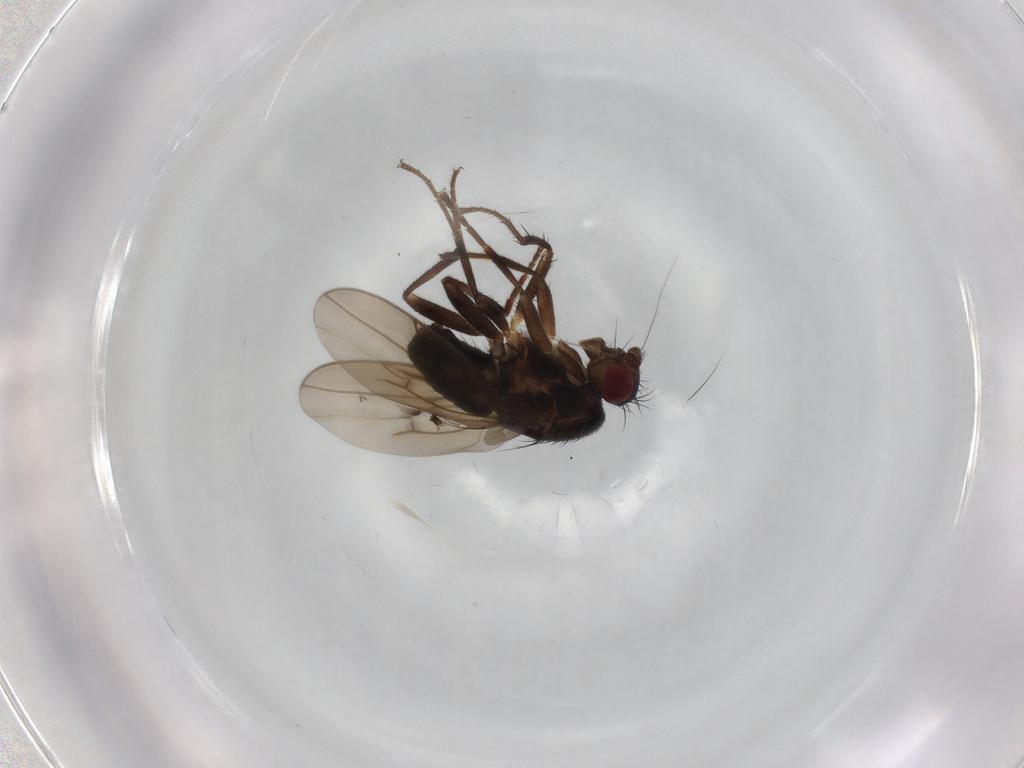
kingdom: Animalia
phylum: Arthropoda
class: Insecta
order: Diptera
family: Sphaeroceridae
